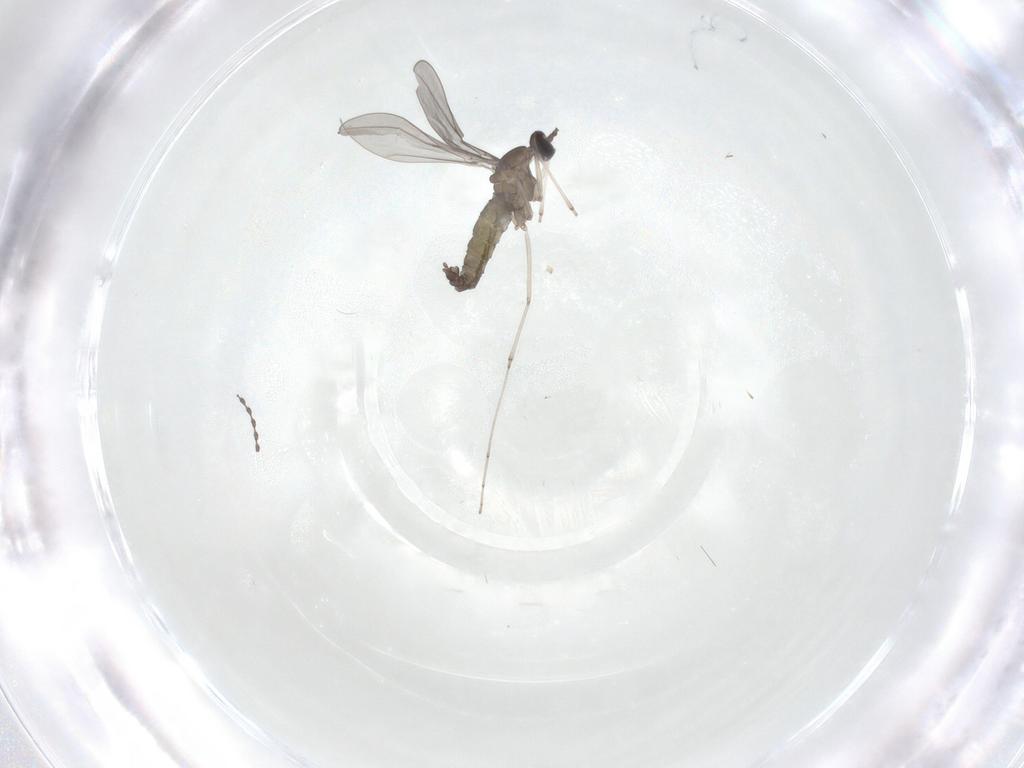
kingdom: Animalia
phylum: Arthropoda
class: Insecta
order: Diptera
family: Cecidomyiidae
